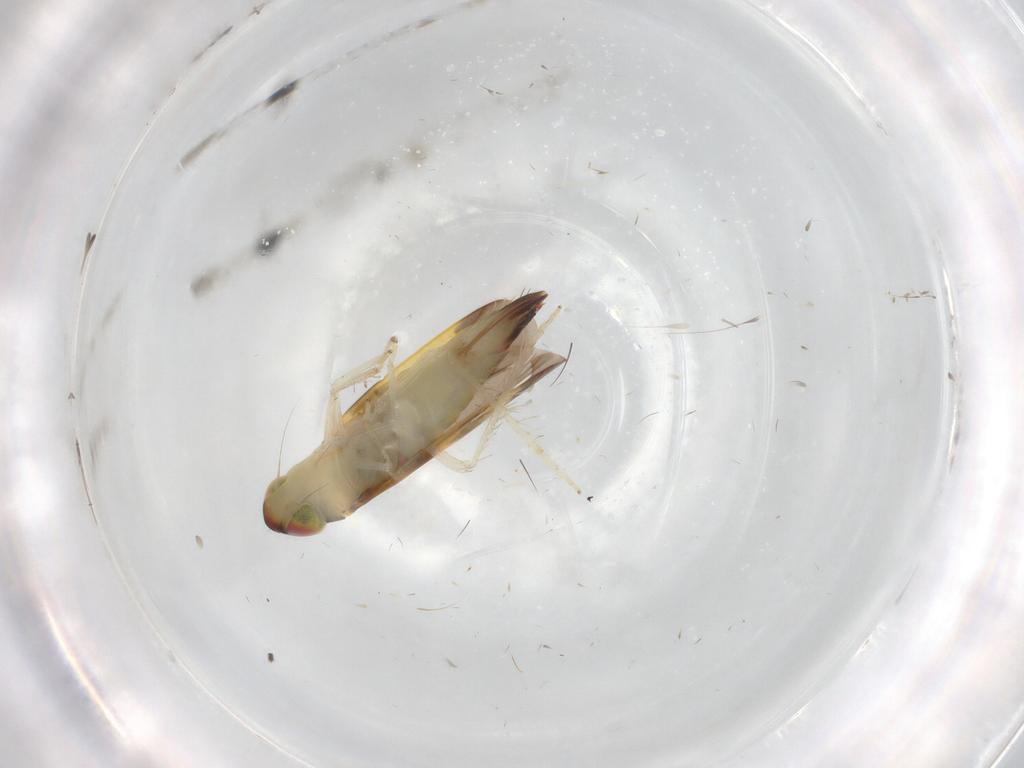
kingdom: Animalia
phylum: Arthropoda
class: Insecta
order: Hemiptera
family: Cicadellidae
